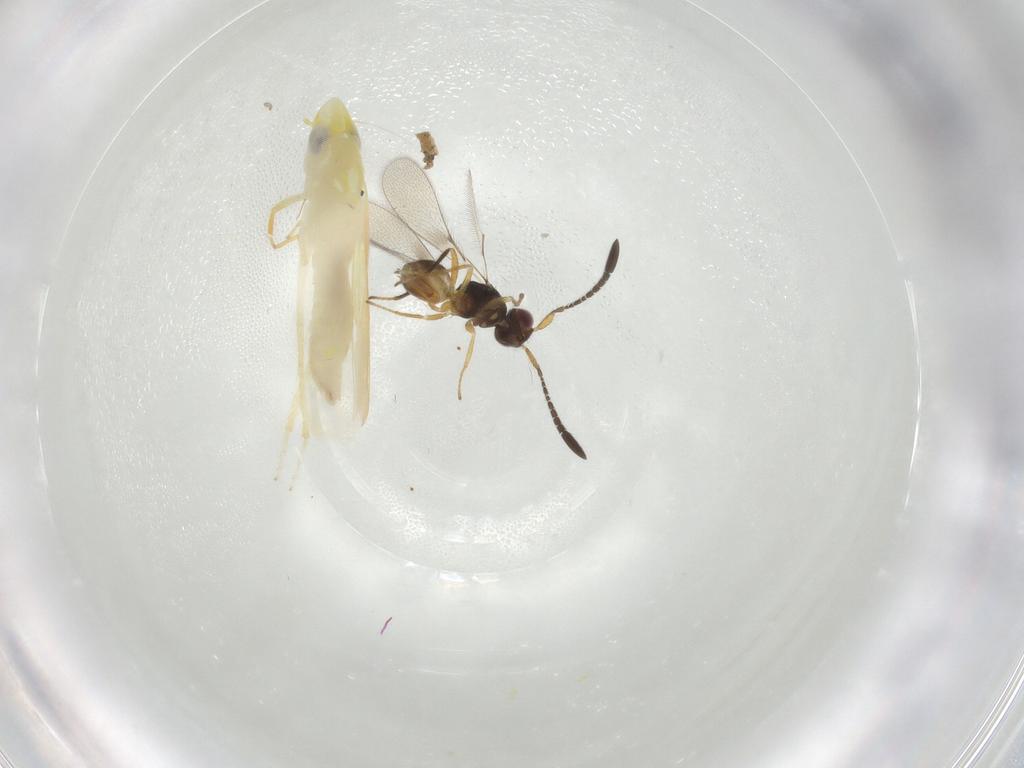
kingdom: Animalia
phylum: Arthropoda
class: Insecta
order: Hemiptera
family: Cicadellidae
